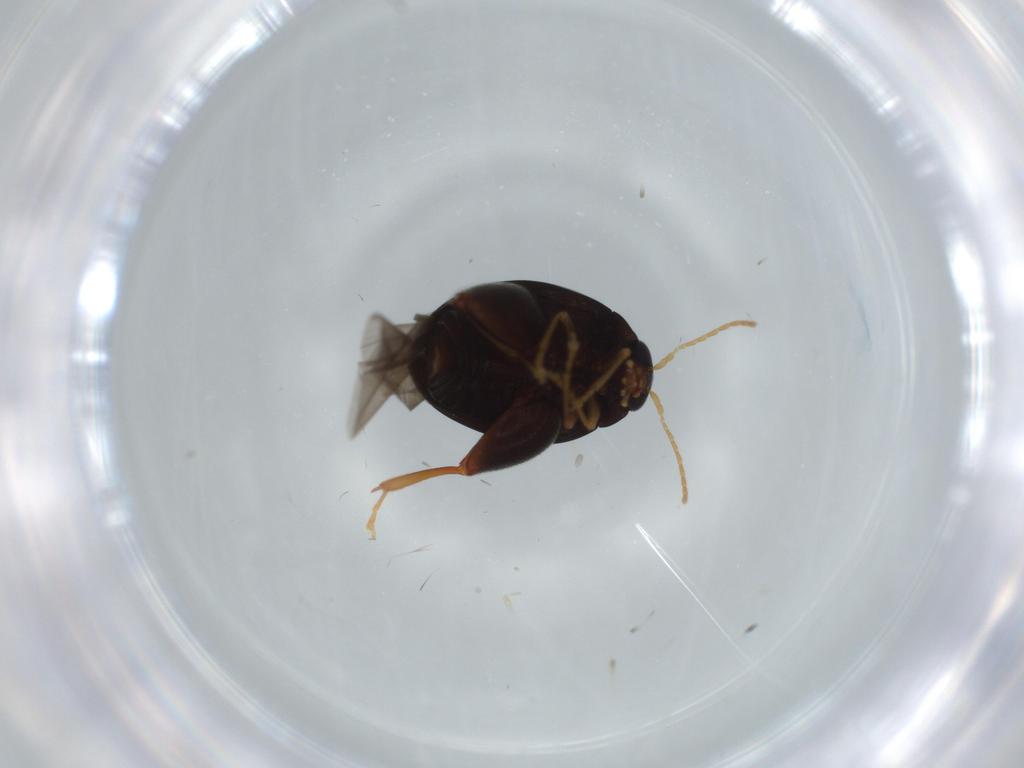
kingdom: Animalia
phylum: Arthropoda
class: Insecta
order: Coleoptera
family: Chrysomelidae
